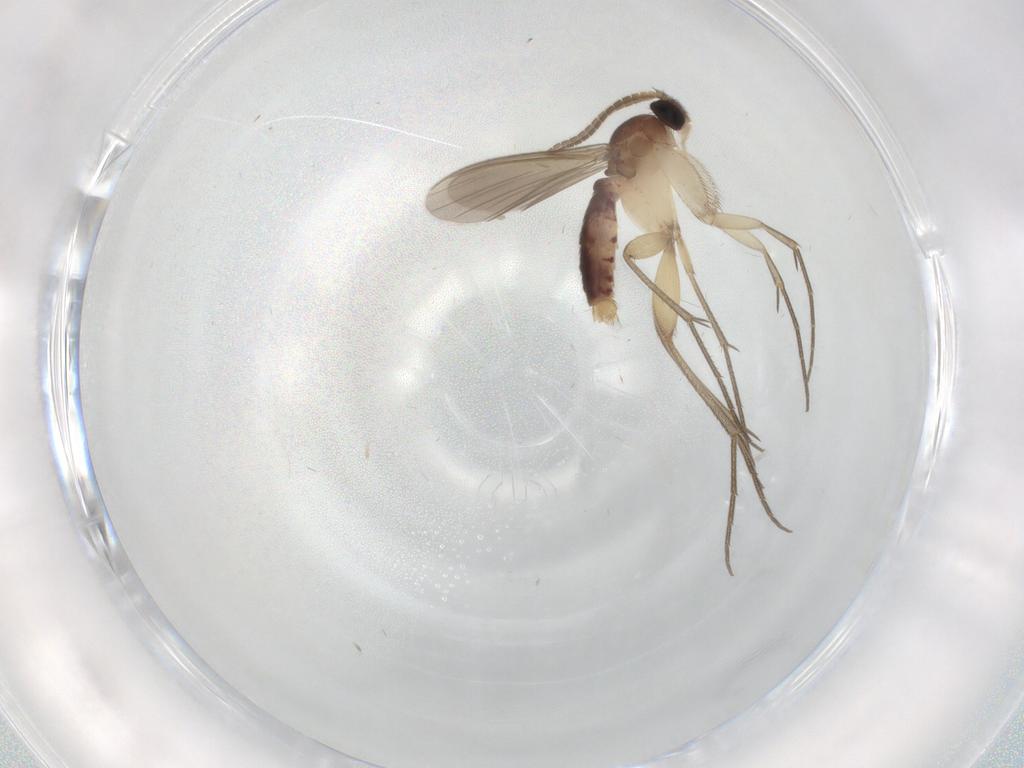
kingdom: Animalia
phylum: Arthropoda
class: Insecta
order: Diptera
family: Mycetophilidae
